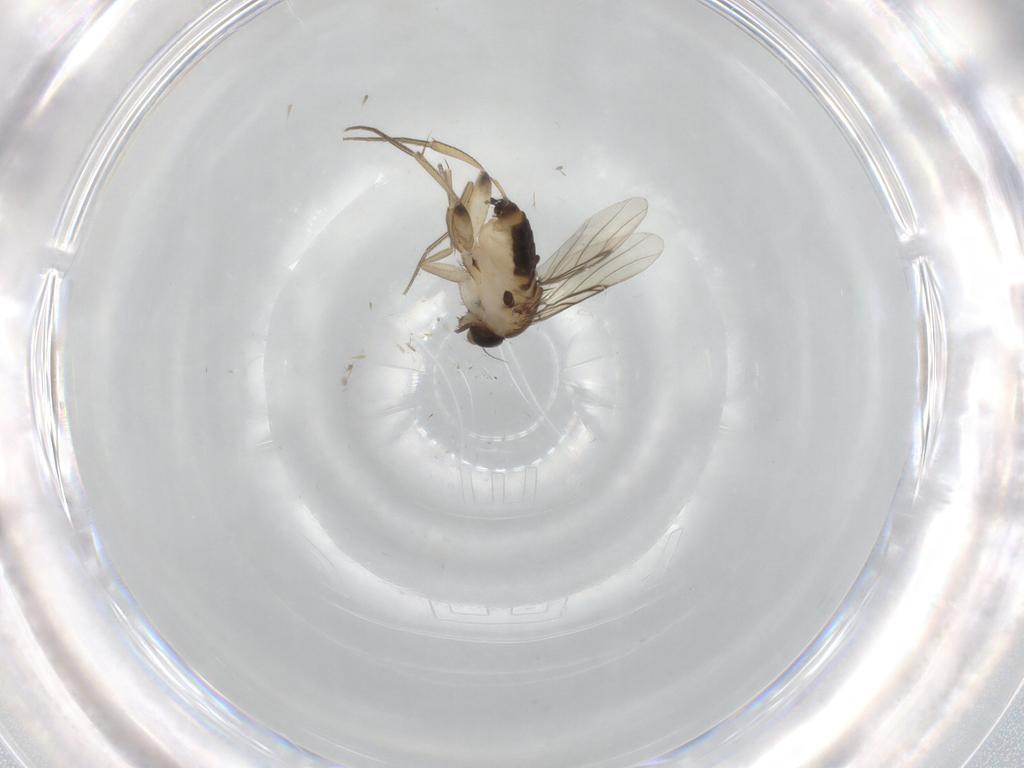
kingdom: Animalia
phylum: Arthropoda
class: Insecta
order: Diptera
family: Phoridae
